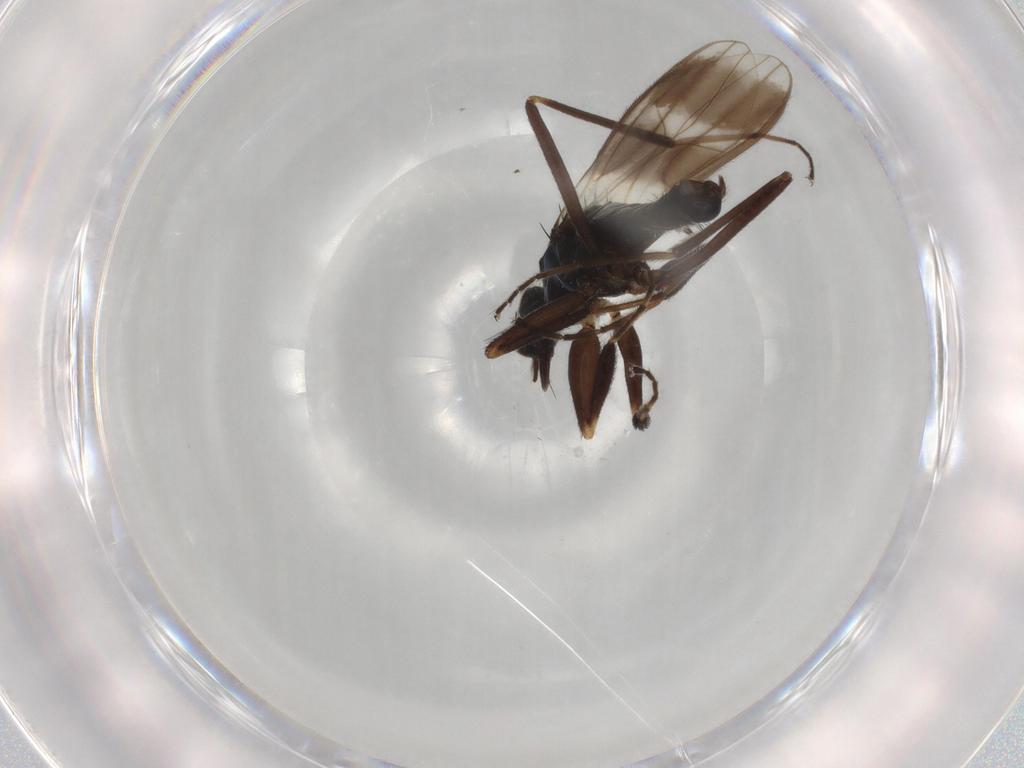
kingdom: Animalia
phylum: Arthropoda
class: Insecta
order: Diptera
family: Hybotidae
